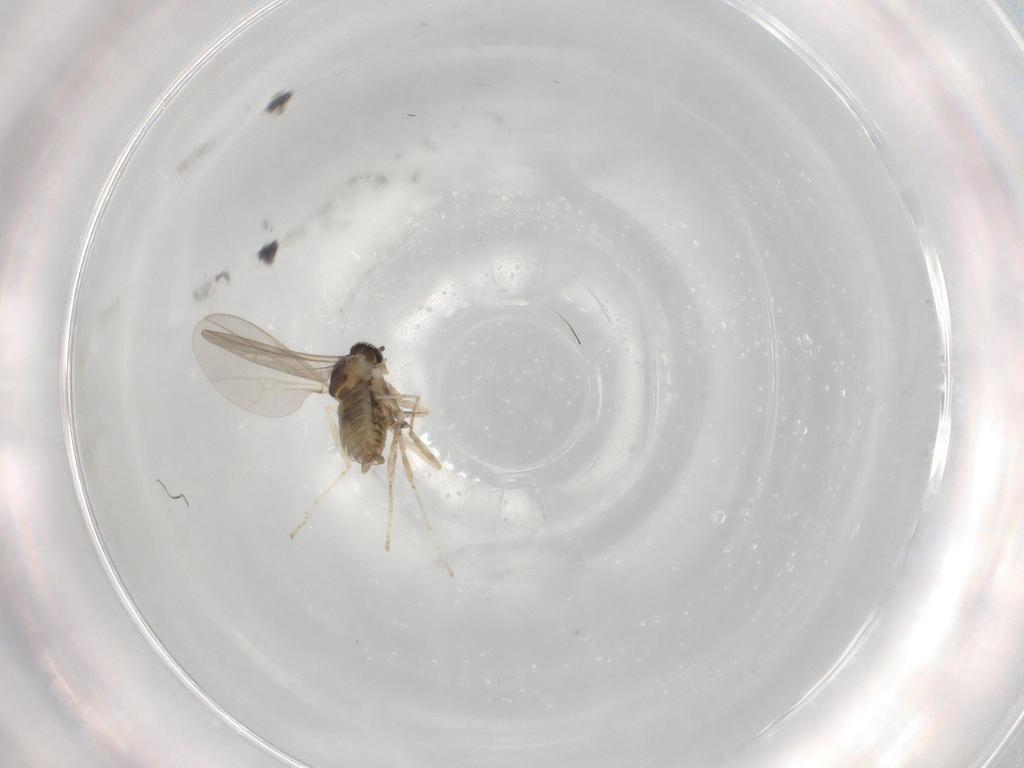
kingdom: Animalia
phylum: Arthropoda
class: Insecta
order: Diptera
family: Cecidomyiidae
